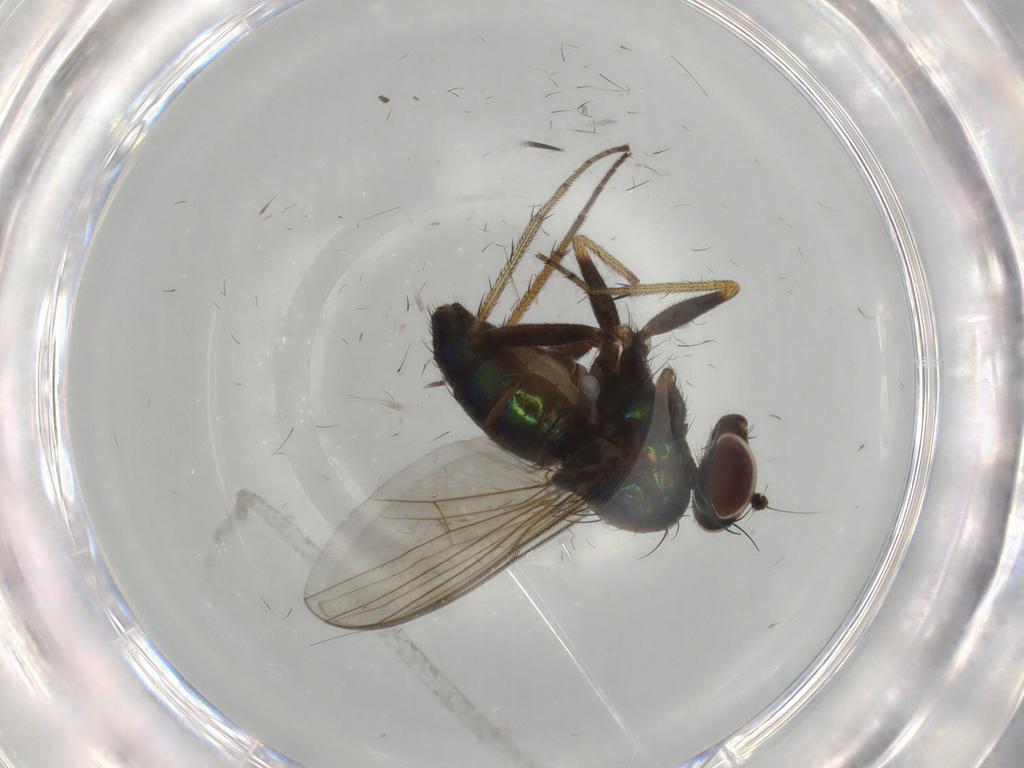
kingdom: Animalia
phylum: Arthropoda
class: Insecta
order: Diptera
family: Dolichopodidae
